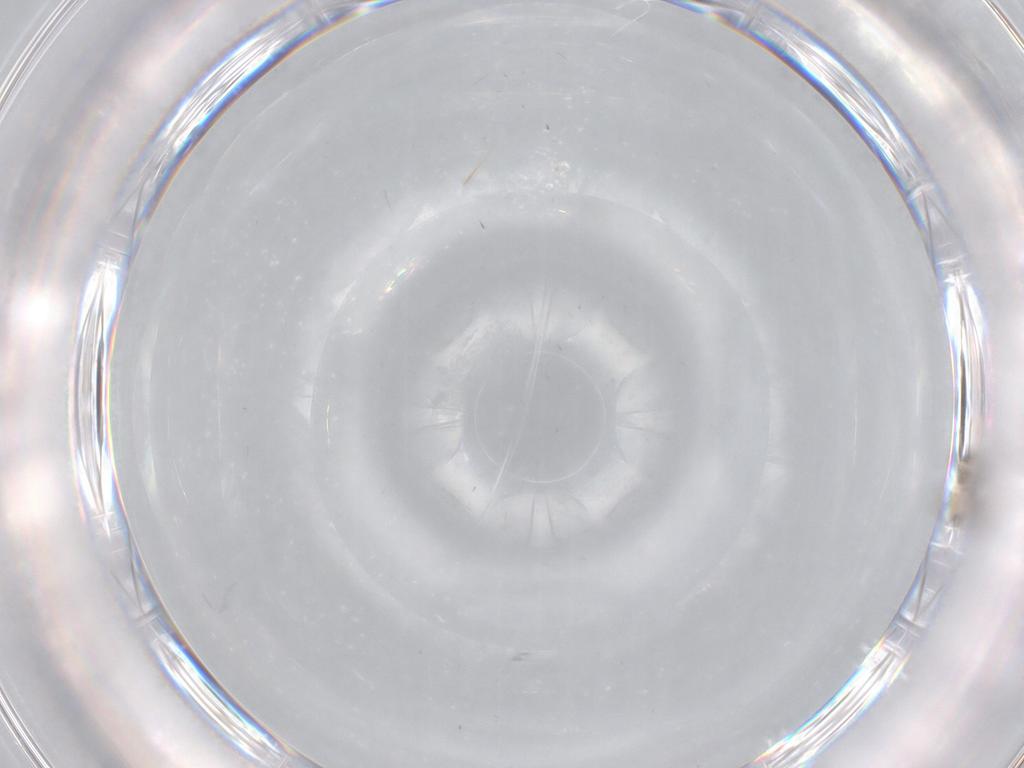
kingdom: Animalia
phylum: Arthropoda
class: Insecta
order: Diptera
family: Cecidomyiidae
